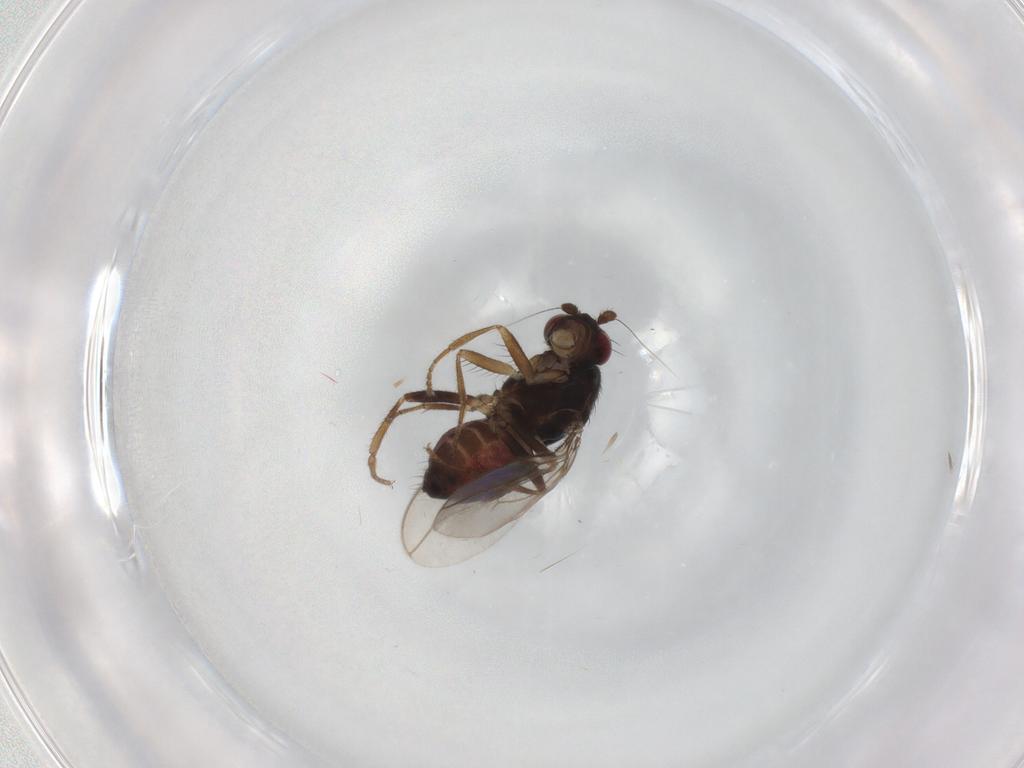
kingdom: Animalia
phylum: Arthropoda
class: Insecta
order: Diptera
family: Sphaeroceridae
